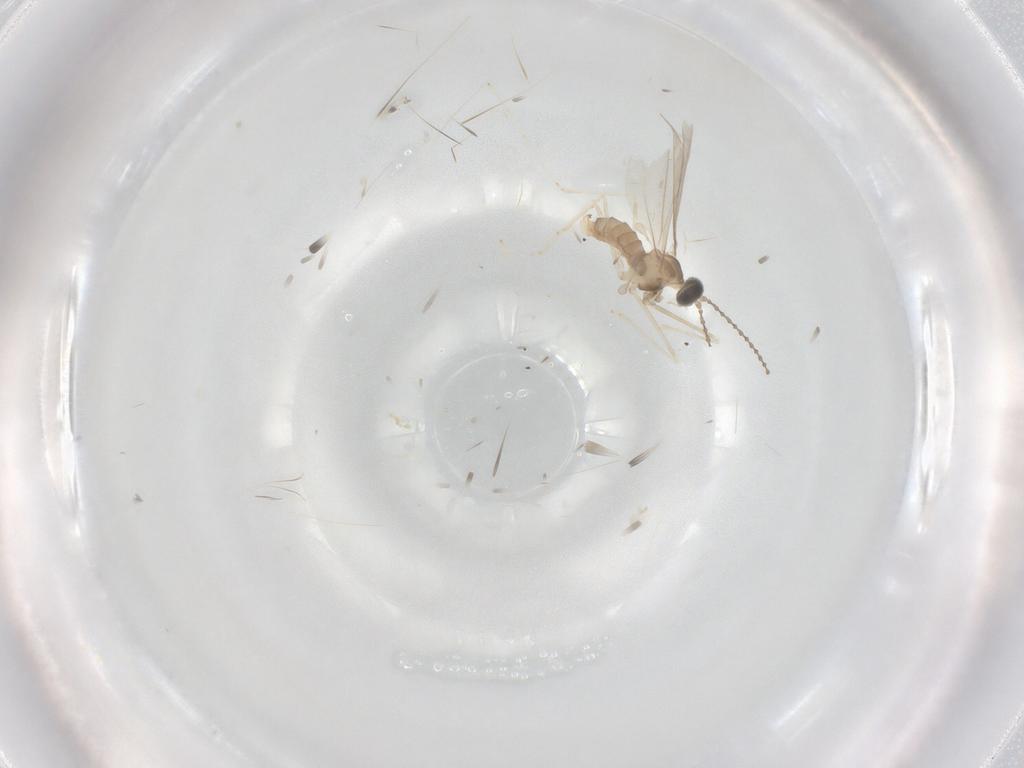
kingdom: Animalia
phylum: Arthropoda
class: Insecta
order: Diptera
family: Cecidomyiidae
